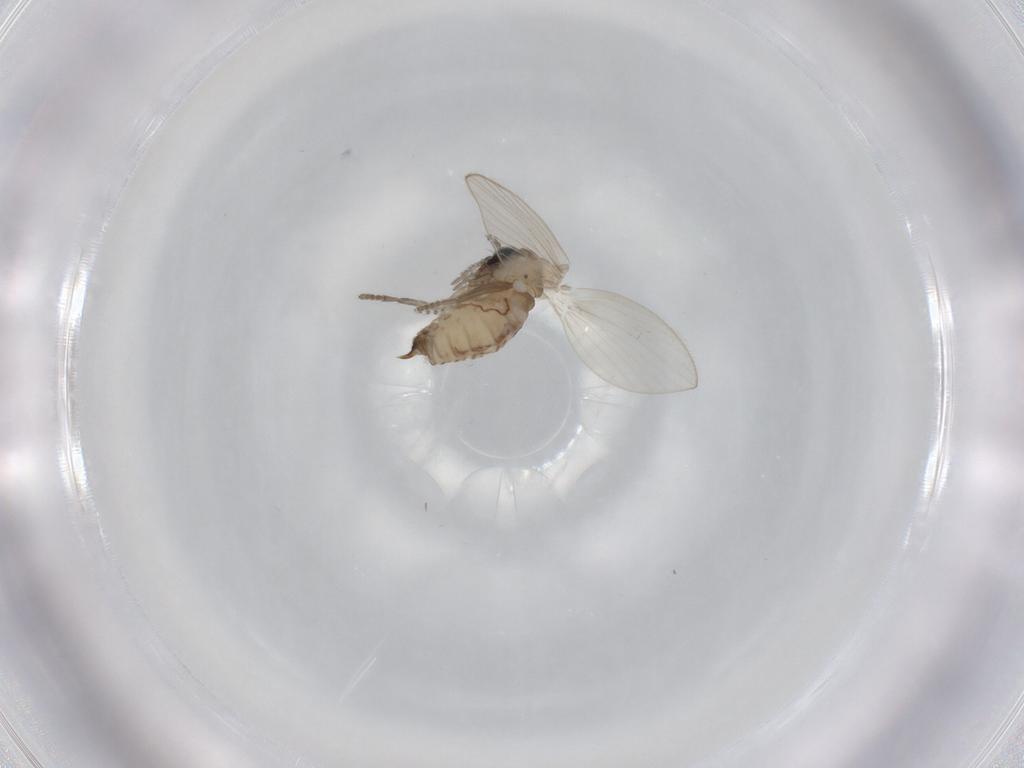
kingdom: Animalia
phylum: Arthropoda
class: Insecta
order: Diptera
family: Psychodidae
